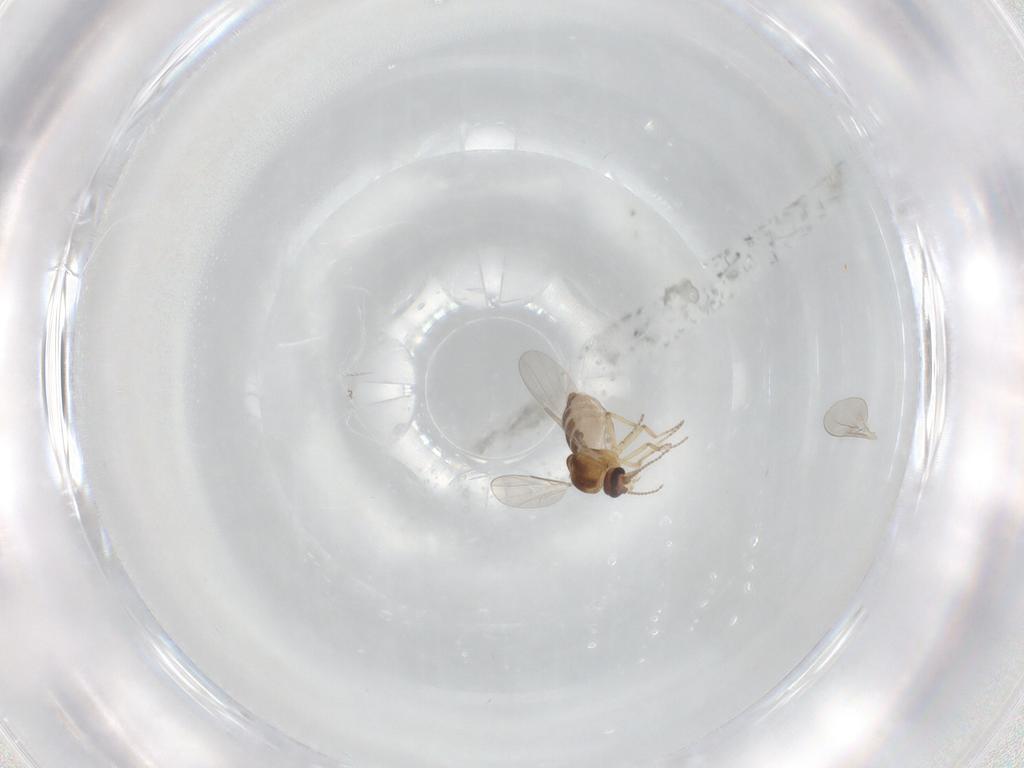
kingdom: Animalia
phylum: Arthropoda
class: Insecta
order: Diptera
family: Ceratopogonidae
